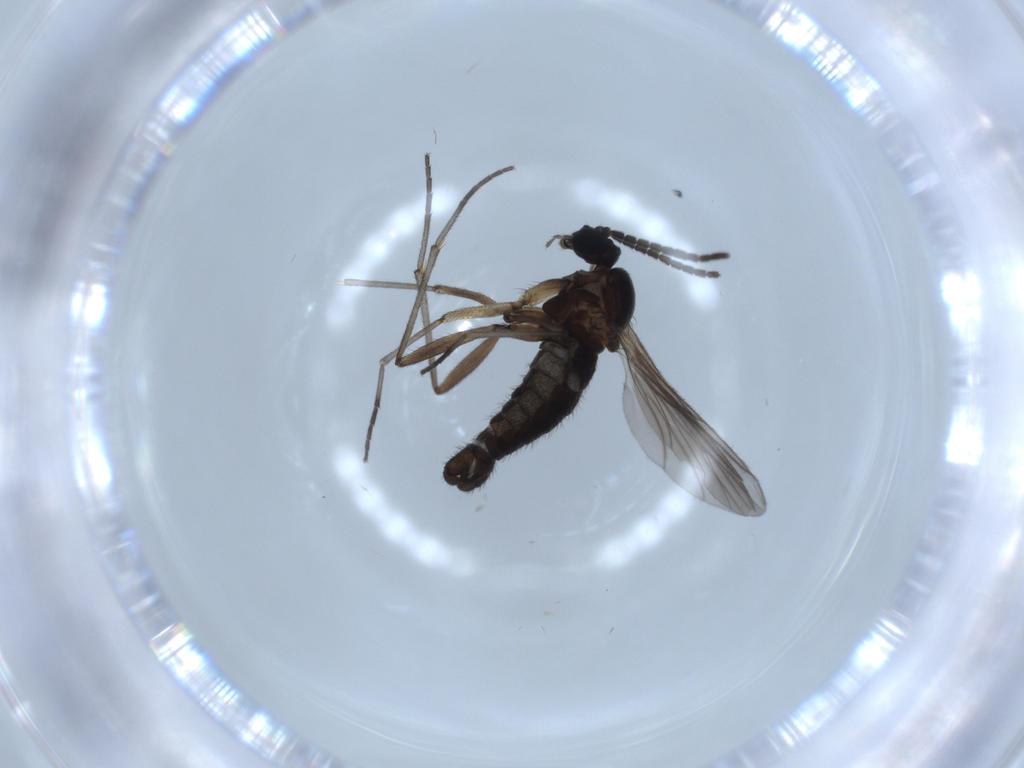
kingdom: Animalia
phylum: Arthropoda
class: Insecta
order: Diptera
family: Sciaridae
